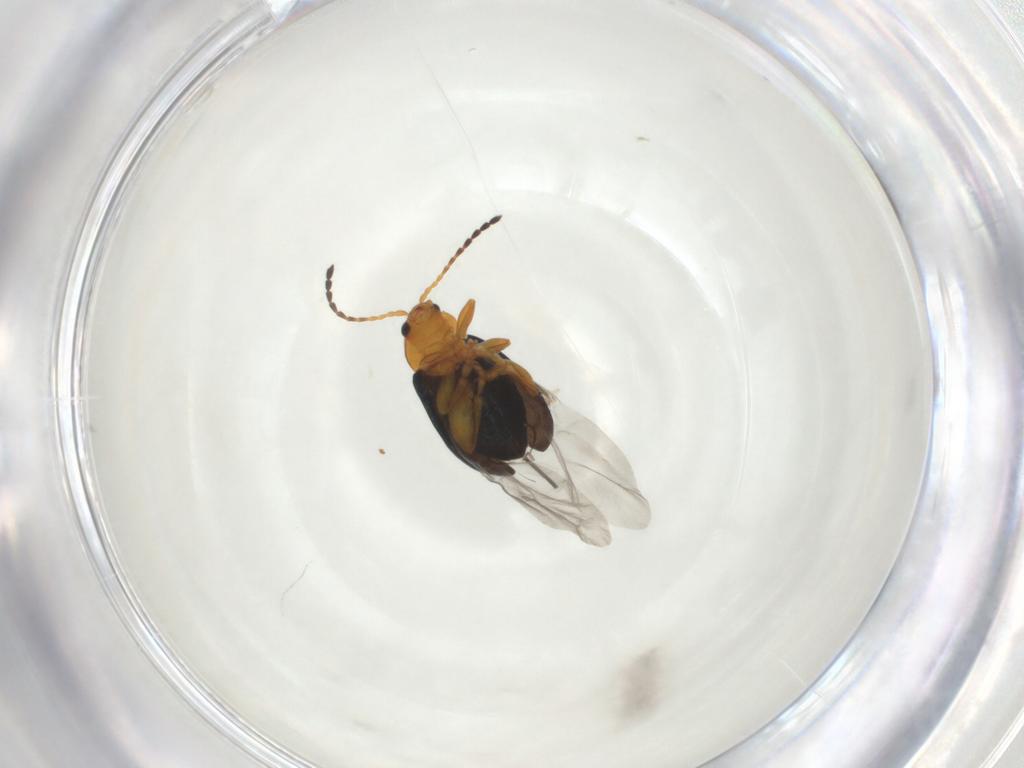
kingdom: Animalia
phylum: Arthropoda
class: Insecta
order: Coleoptera
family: Chrysomelidae
